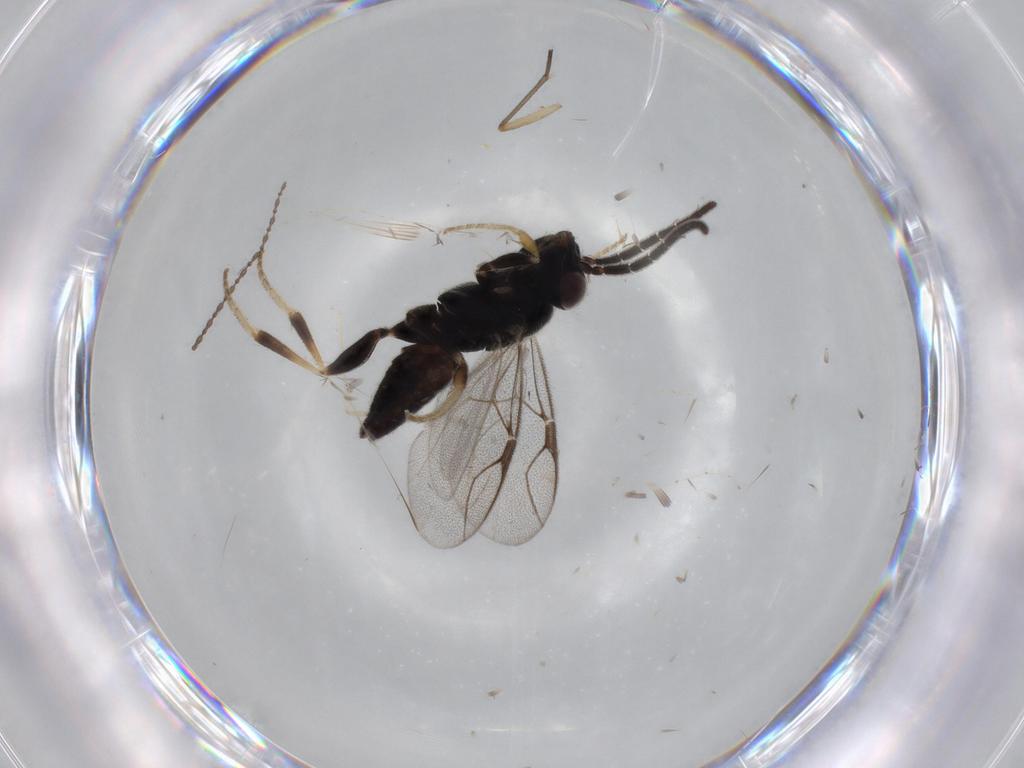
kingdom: Animalia
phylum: Arthropoda
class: Insecta
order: Hymenoptera
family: Dryinidae
